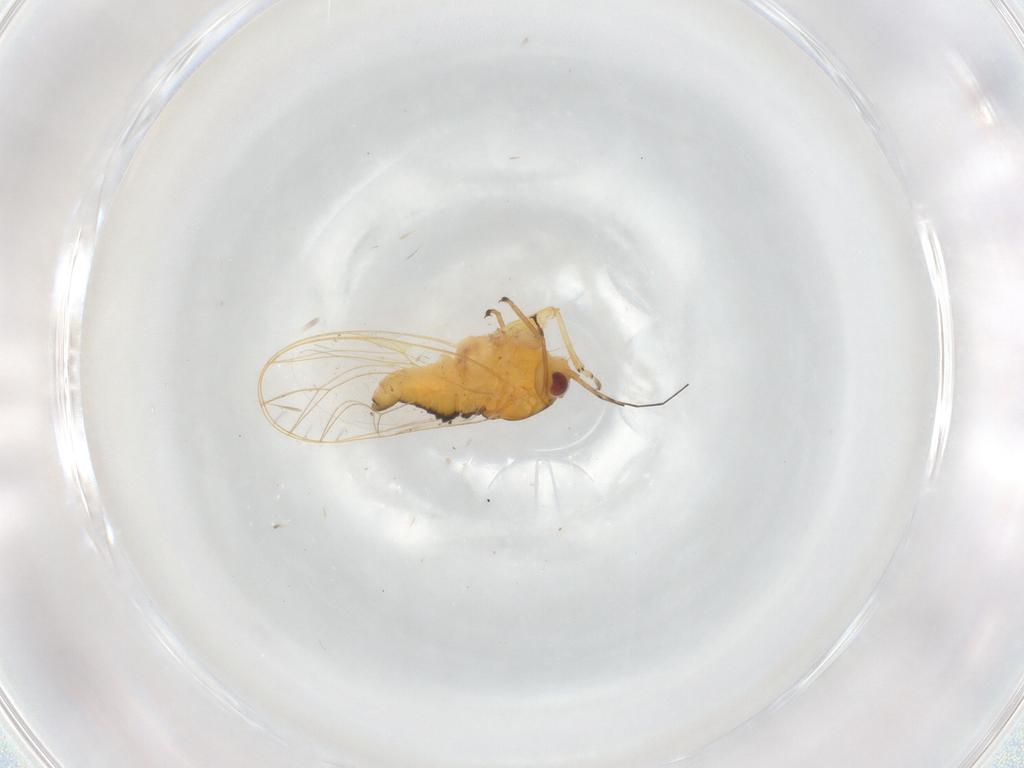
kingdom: Animalia
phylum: Arthropoda
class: Insecta
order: Hemiptera
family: Psyllidae
